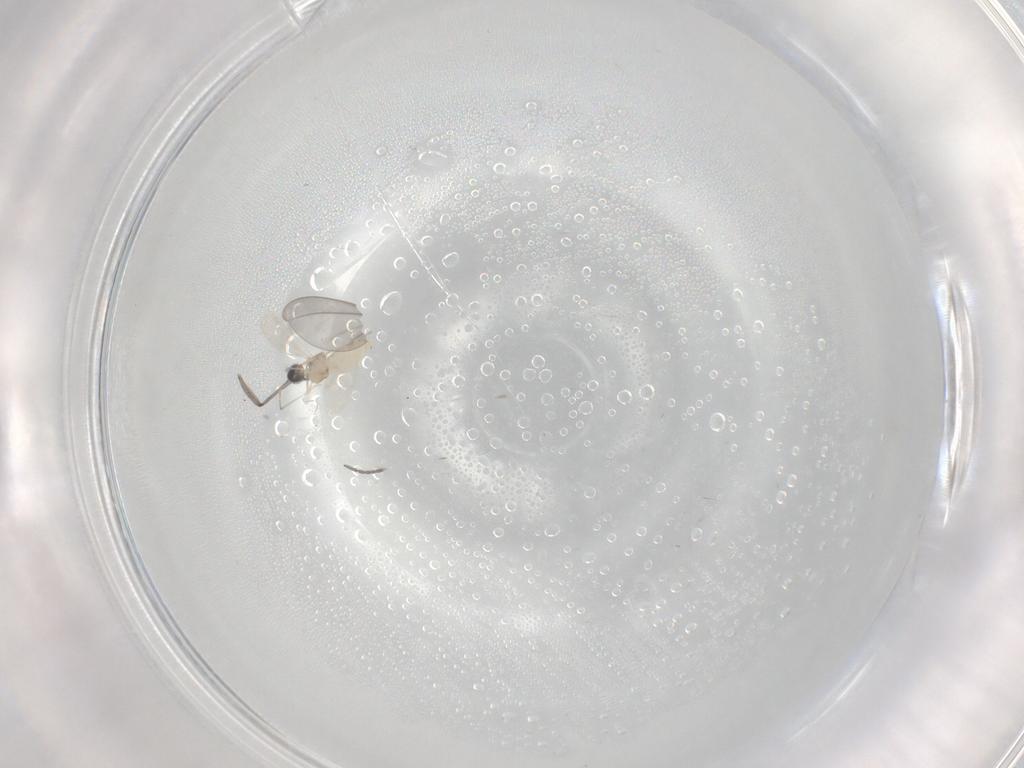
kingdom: Animalia
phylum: Arthropoda
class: Insecta
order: Diptera
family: Cecidomyiidae
